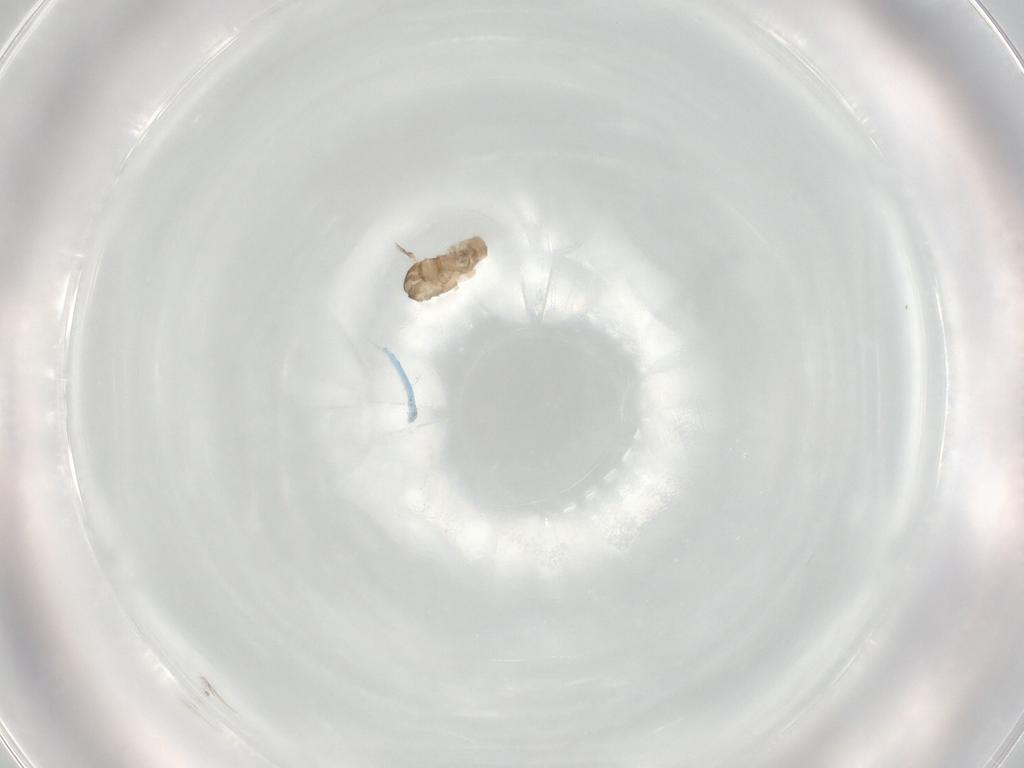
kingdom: Animalia
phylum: Arthropoda
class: Insecta
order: Diptera
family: Cecidomyiidae
